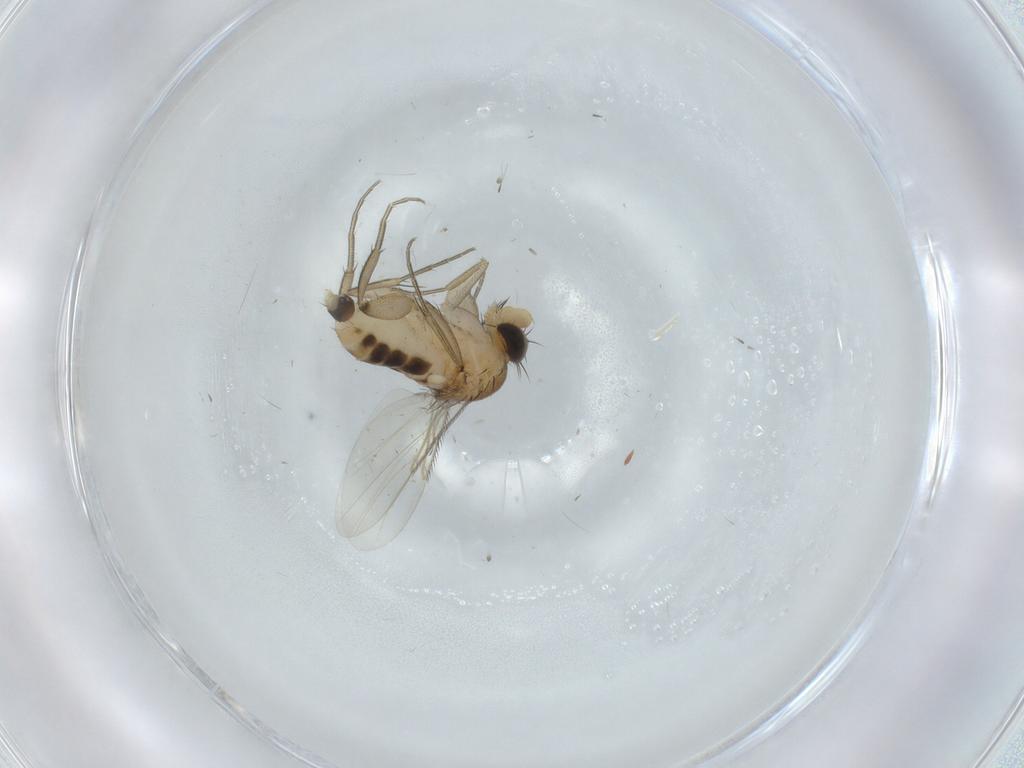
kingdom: Animalia
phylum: Arthropoda
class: Insecta
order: Diptera
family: Phoridae
